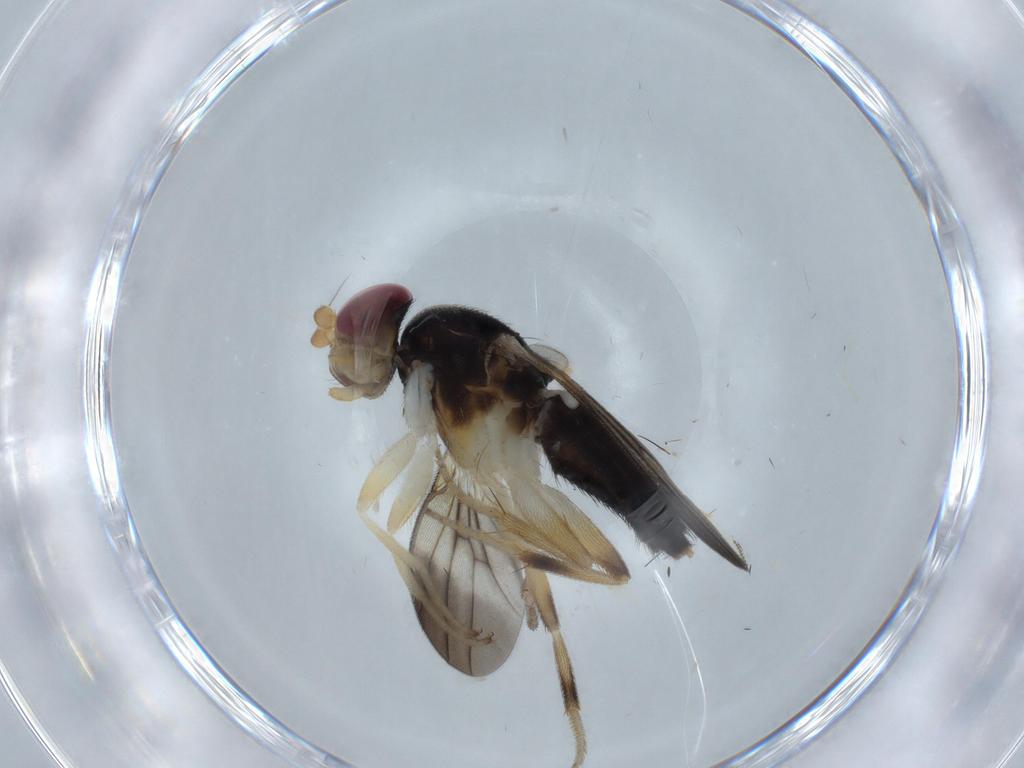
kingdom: Animalia
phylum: Arthropoda
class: Insecta
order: Diptera
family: Clusiidae
